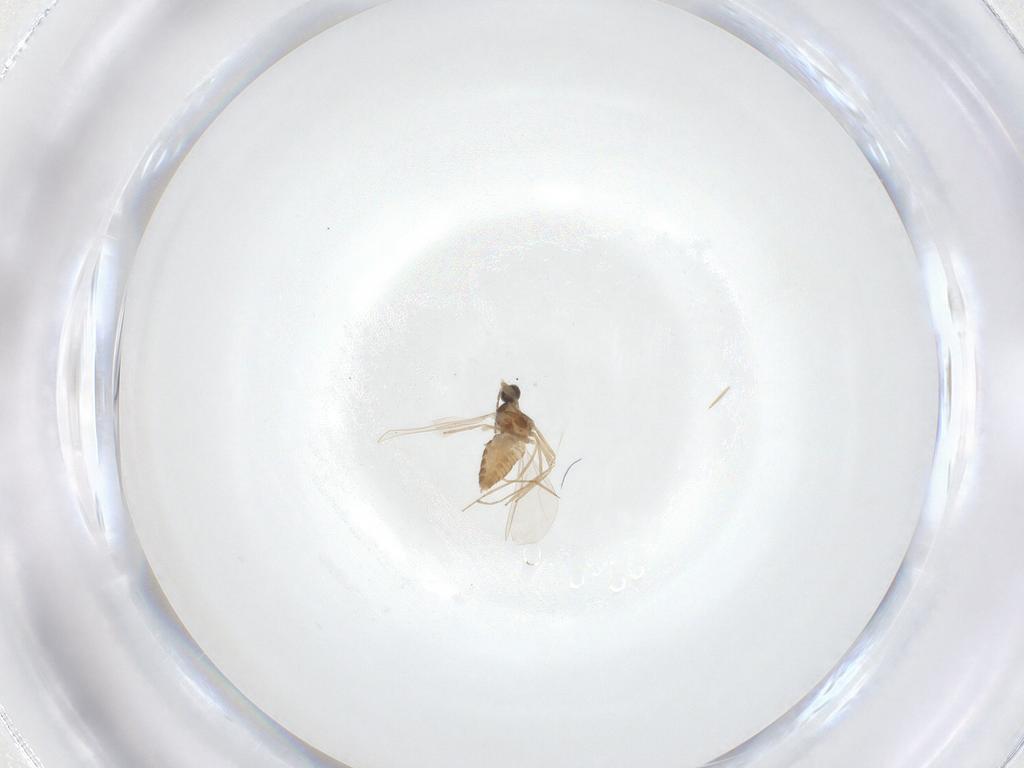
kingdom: Animalia
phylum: Arthropoda
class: Insecta
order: Diptera
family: Cecidomyiidae
